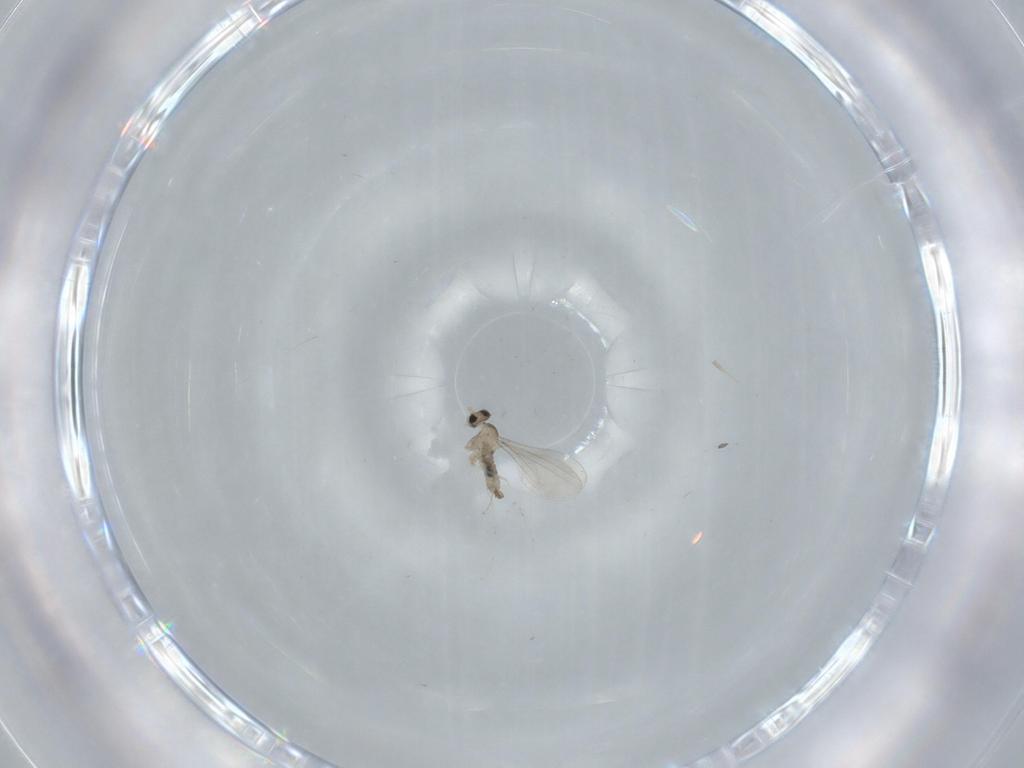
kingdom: Animalia
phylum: Arthropoda
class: Insecta
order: Diptera
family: Cecidomyiidae
